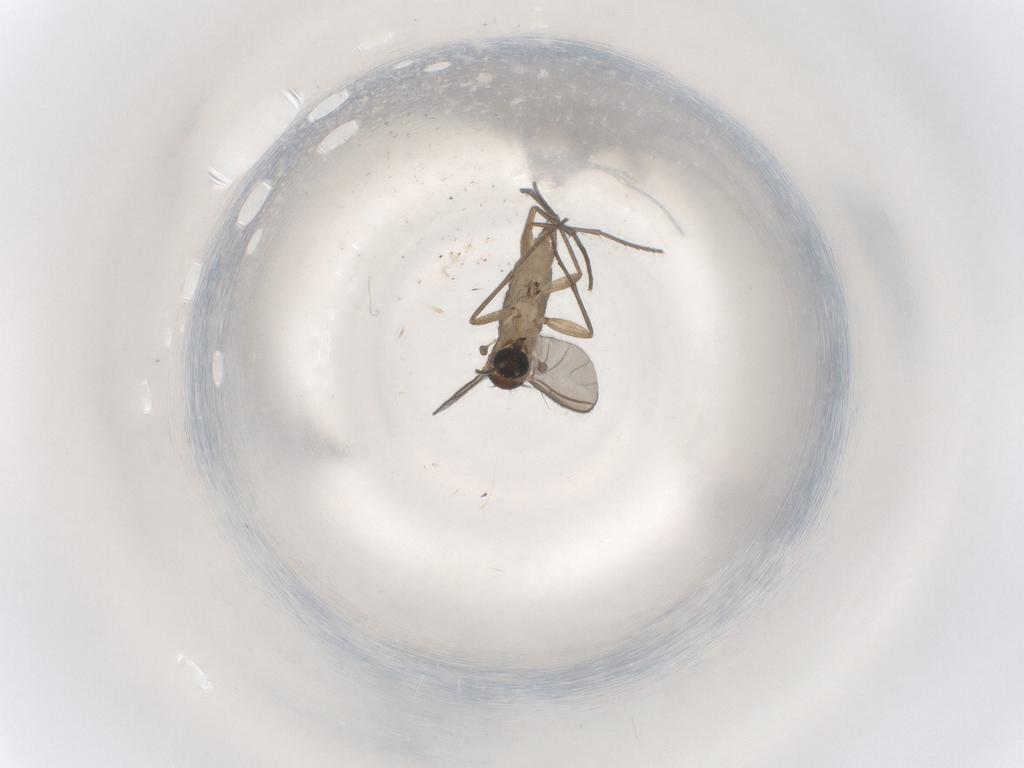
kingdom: Animalia
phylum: Arthropoda
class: Insecta
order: Diptera
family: Sciaridae
